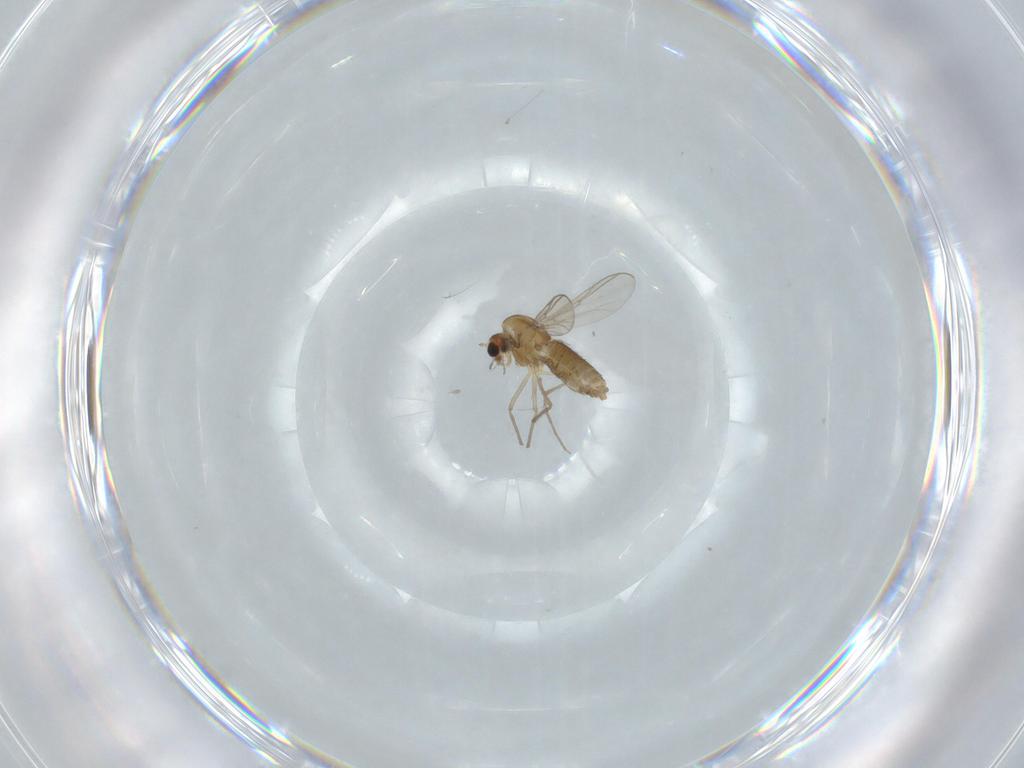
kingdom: Animalia
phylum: Arthropoda
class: Insecta
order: Diptera
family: Chironomidae
